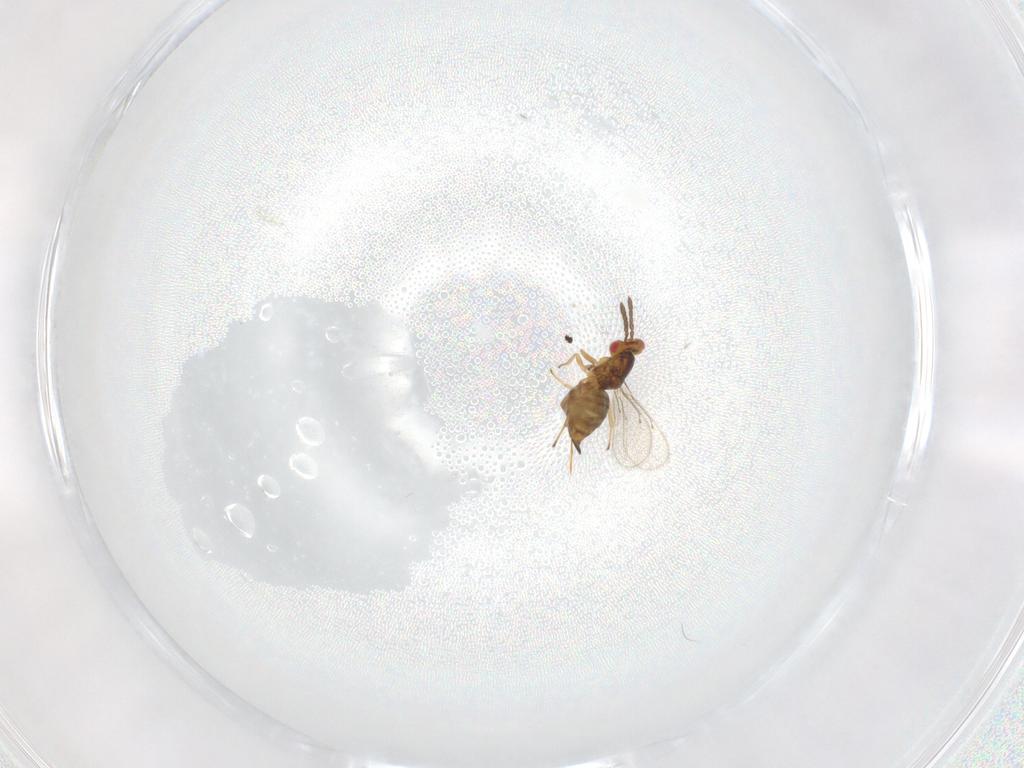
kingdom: Animalia
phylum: Arthropoda
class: Insecta
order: Hymenoptera
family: Eulophidae
